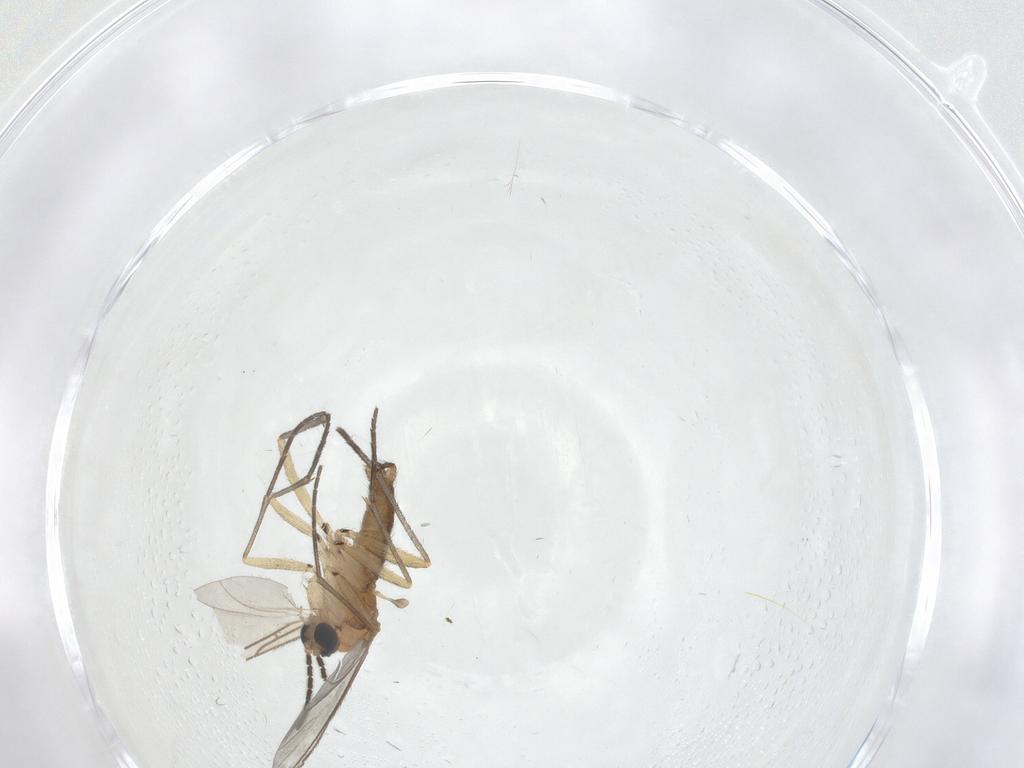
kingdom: Animalia
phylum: Arthropoda
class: Insecta
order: Diptera
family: Sciaridae
